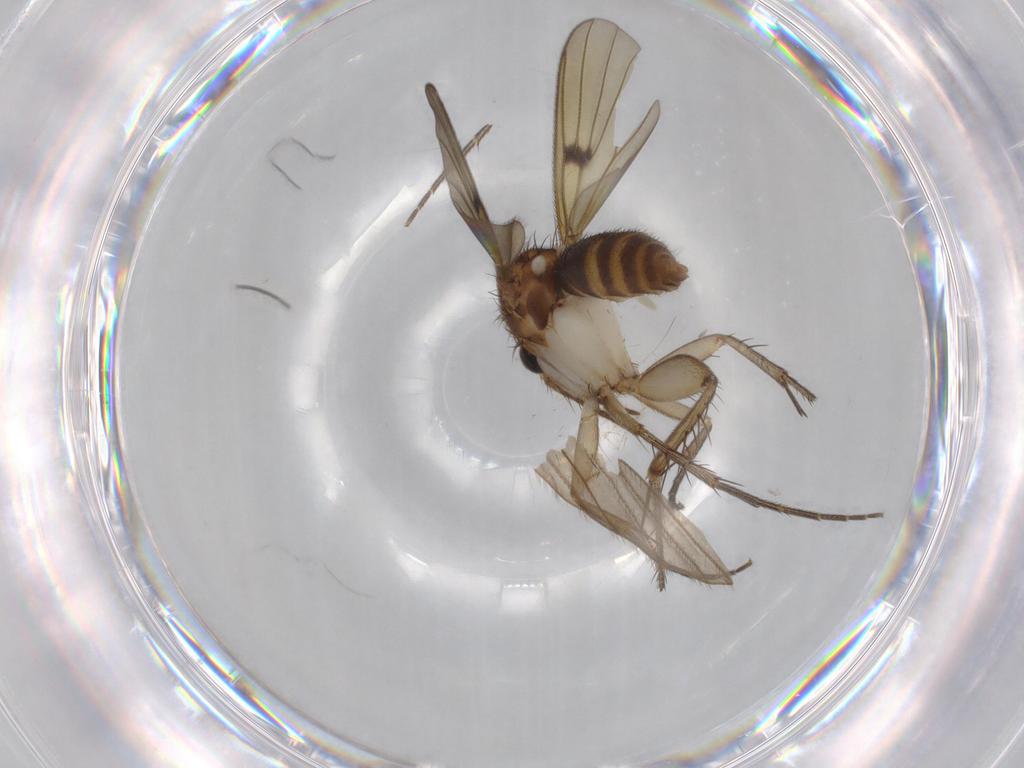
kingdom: Animalia
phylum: Arthropoda
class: Insecta
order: Diptera
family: Mycetophilidae
